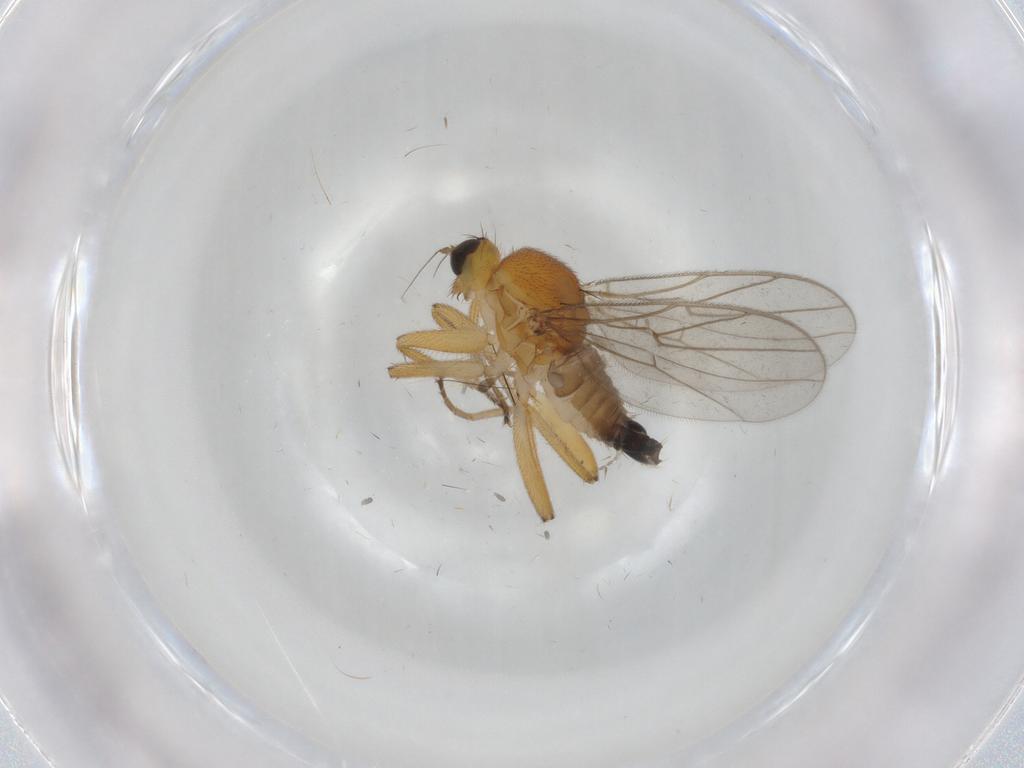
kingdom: Animalia
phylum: Arthropoda
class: Insecta
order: Diptera
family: Hybotidae
